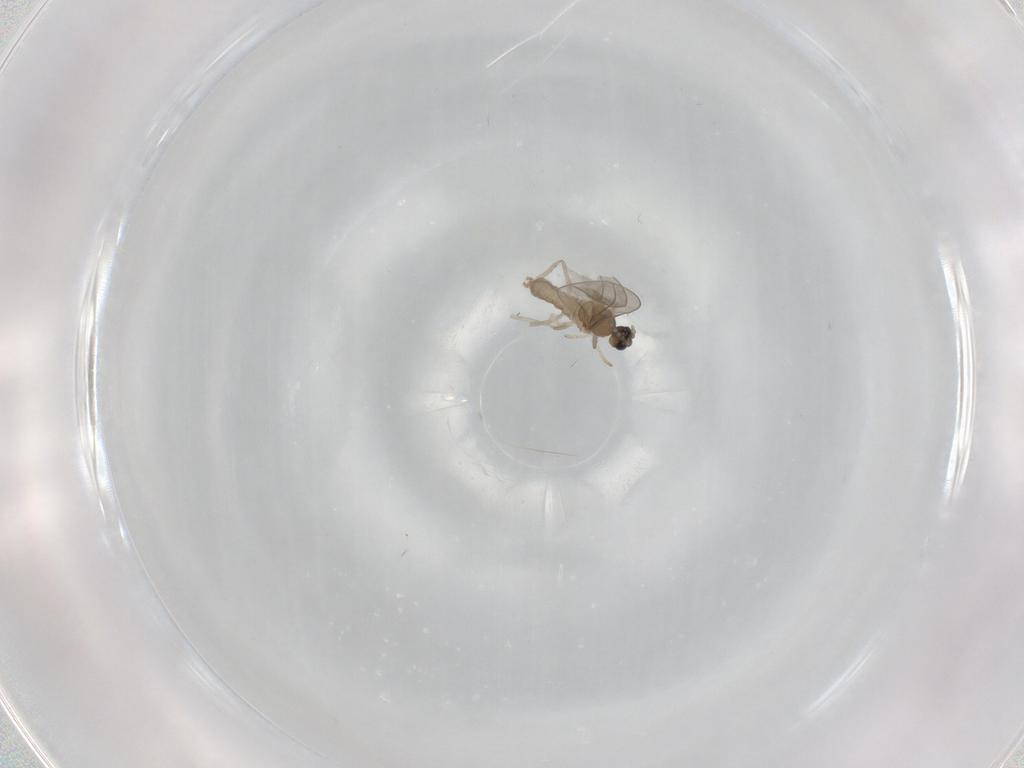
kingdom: Animalia
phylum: Arthropoda
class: Insecta
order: Diptera
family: Cecidomyiidae
